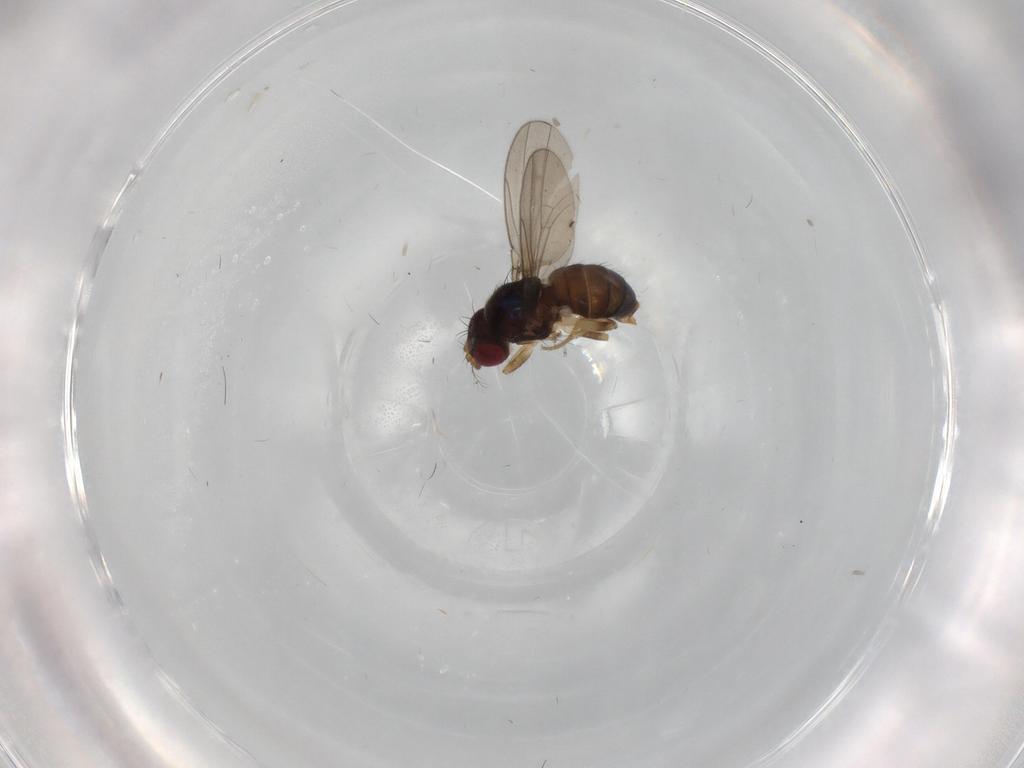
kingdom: Animalia
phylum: Arthropoda
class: Insecta
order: Diptera
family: Drosophilidae
